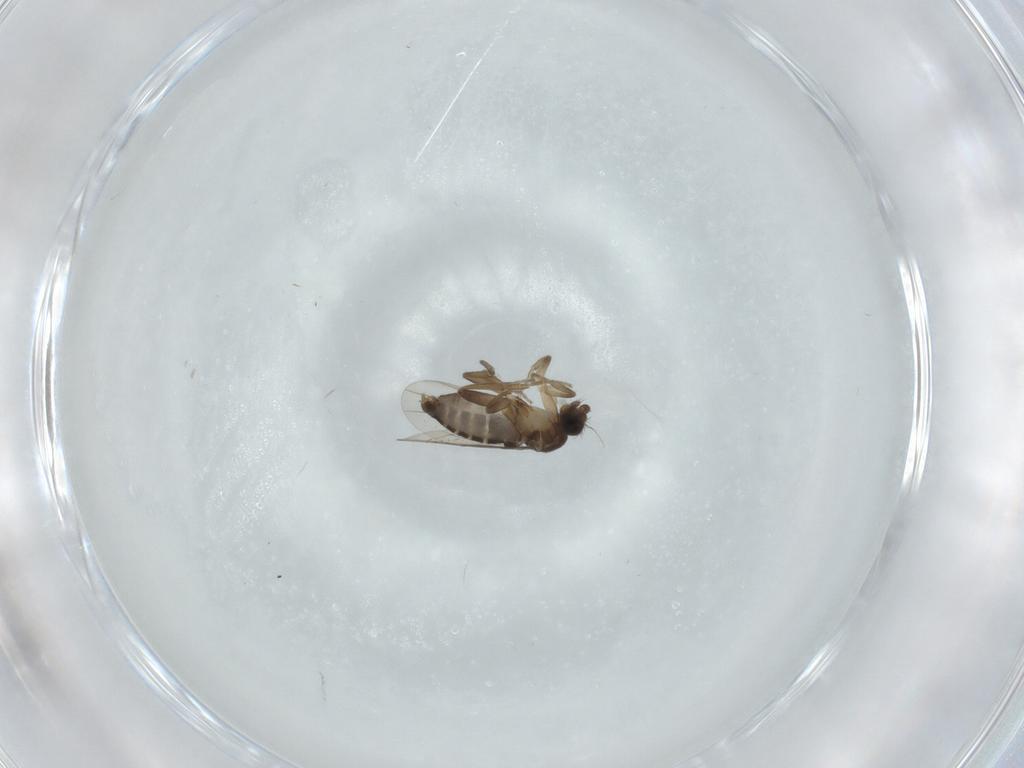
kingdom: Animalia
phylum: Arthropoda
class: Insecta
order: Diptera
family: Phoridae
